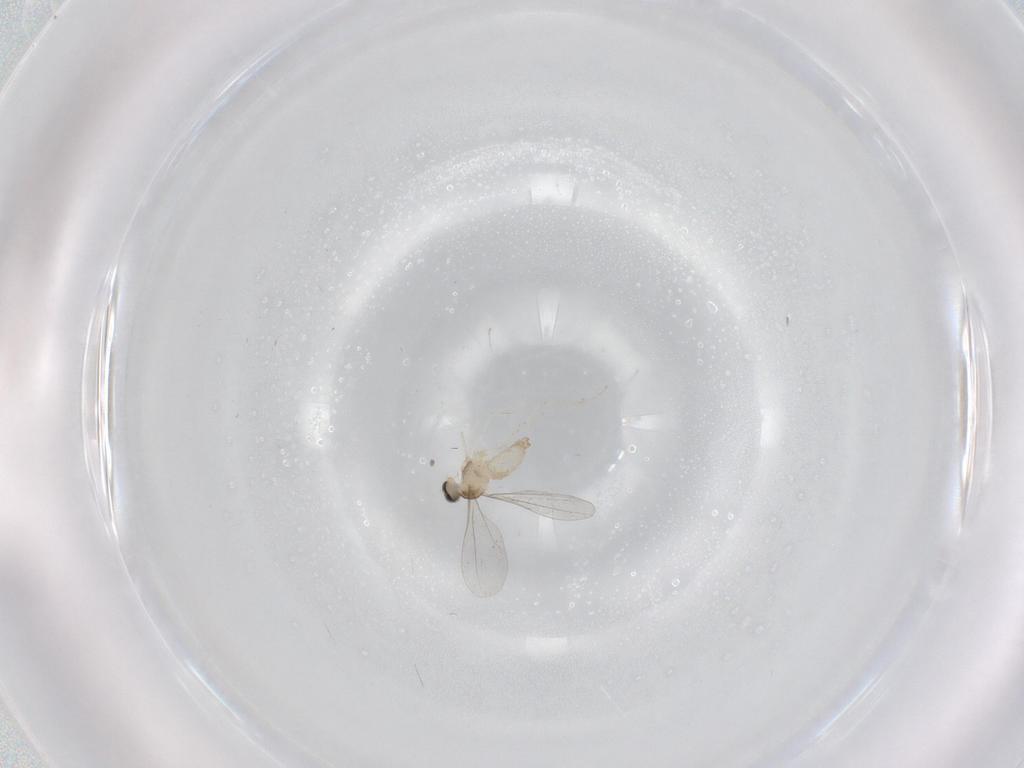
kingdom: Animalia
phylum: Arthropoda
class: Insecta
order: Diptera
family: Cecidomyiidae
